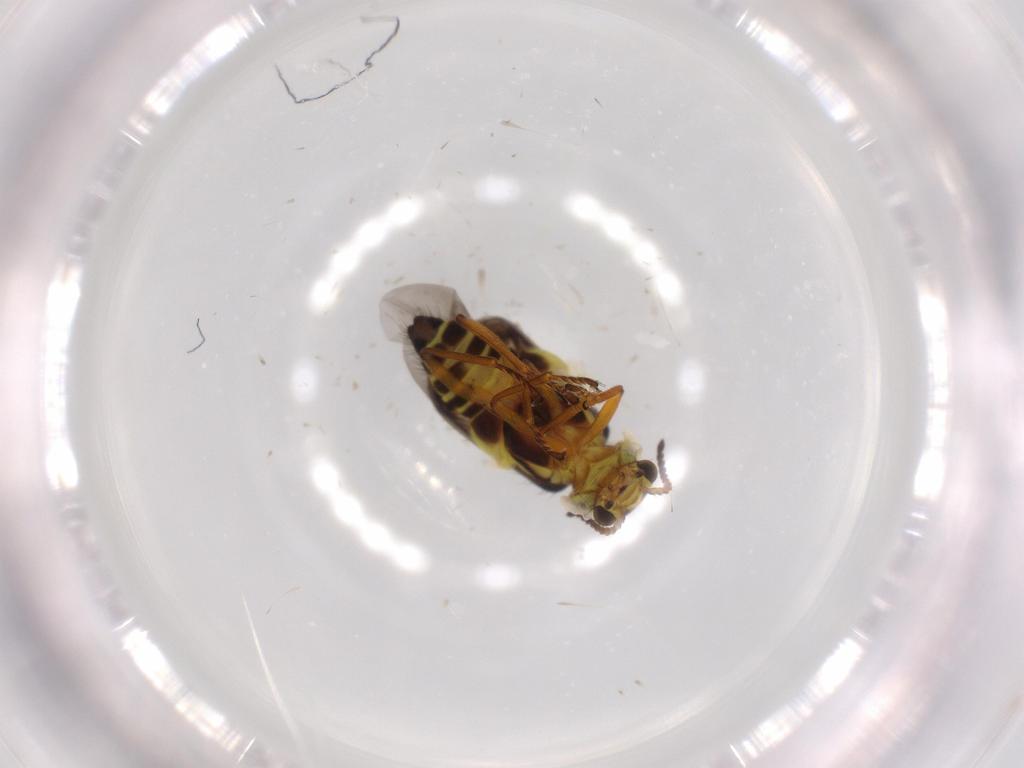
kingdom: Animalia
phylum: Arthropoda
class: Insecta
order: Coleoptera
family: Melyridae
